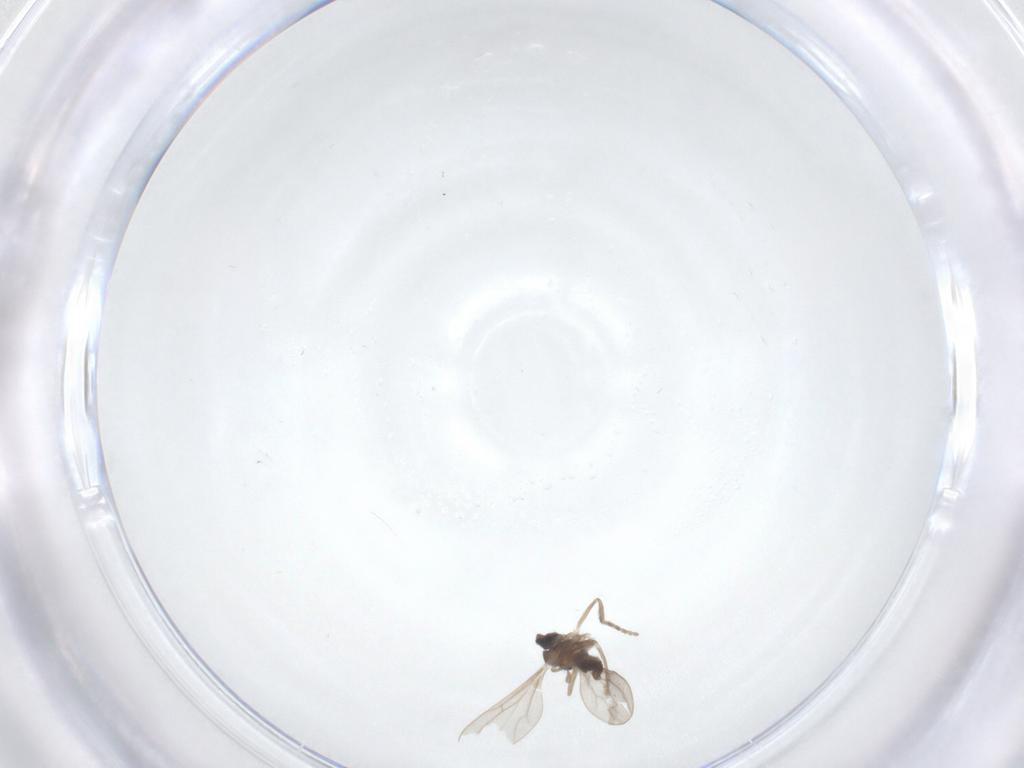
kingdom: Animalia
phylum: Arthropoda
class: Insecta
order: Diptera
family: Cecidomyiidae
